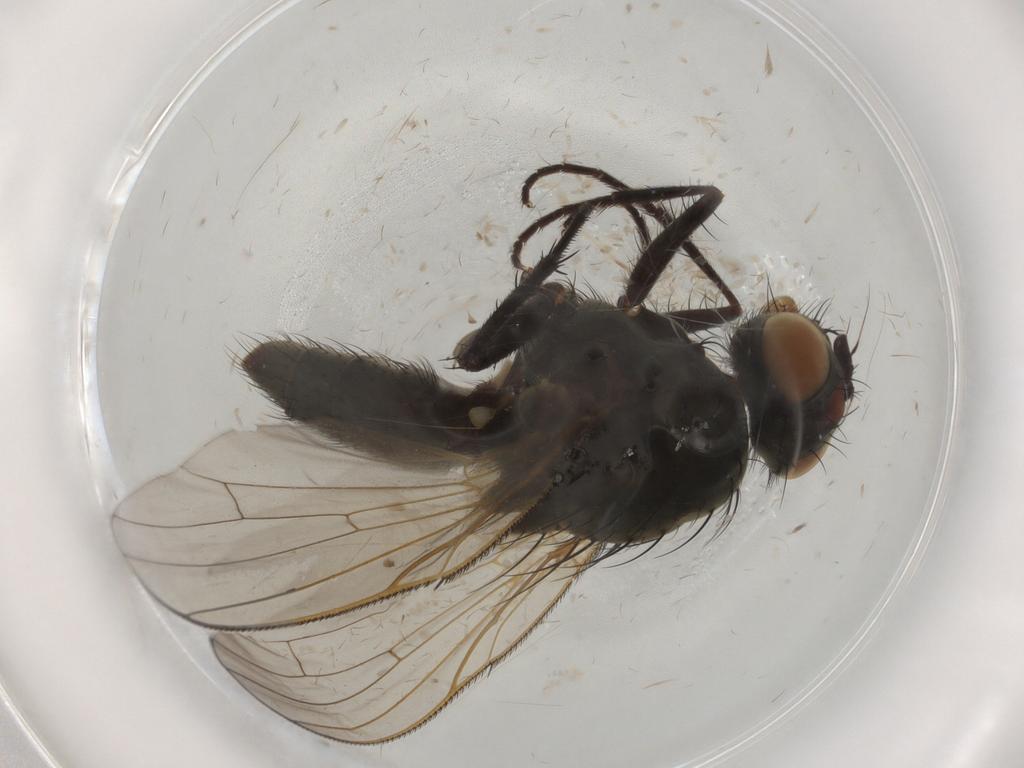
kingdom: Animalia
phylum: Arthropoda
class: Insecta
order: Diptera
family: Anthomyiidae
